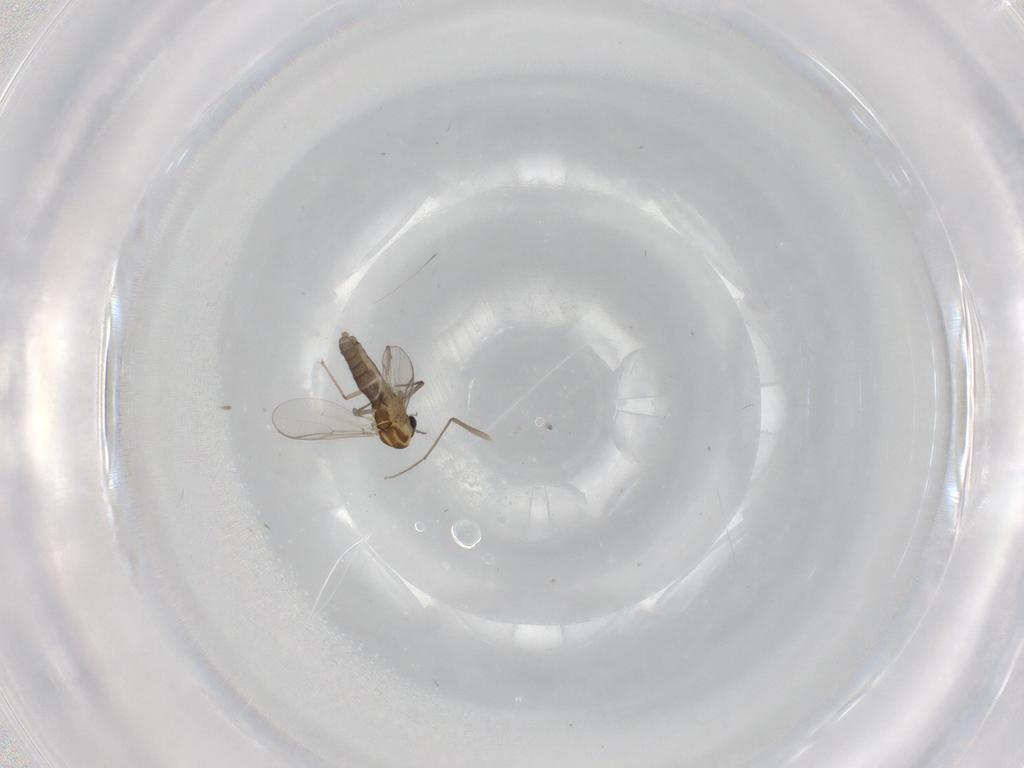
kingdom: Animalia
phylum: Arthropoda
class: Insecta
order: Diptera
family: Chironomidae
